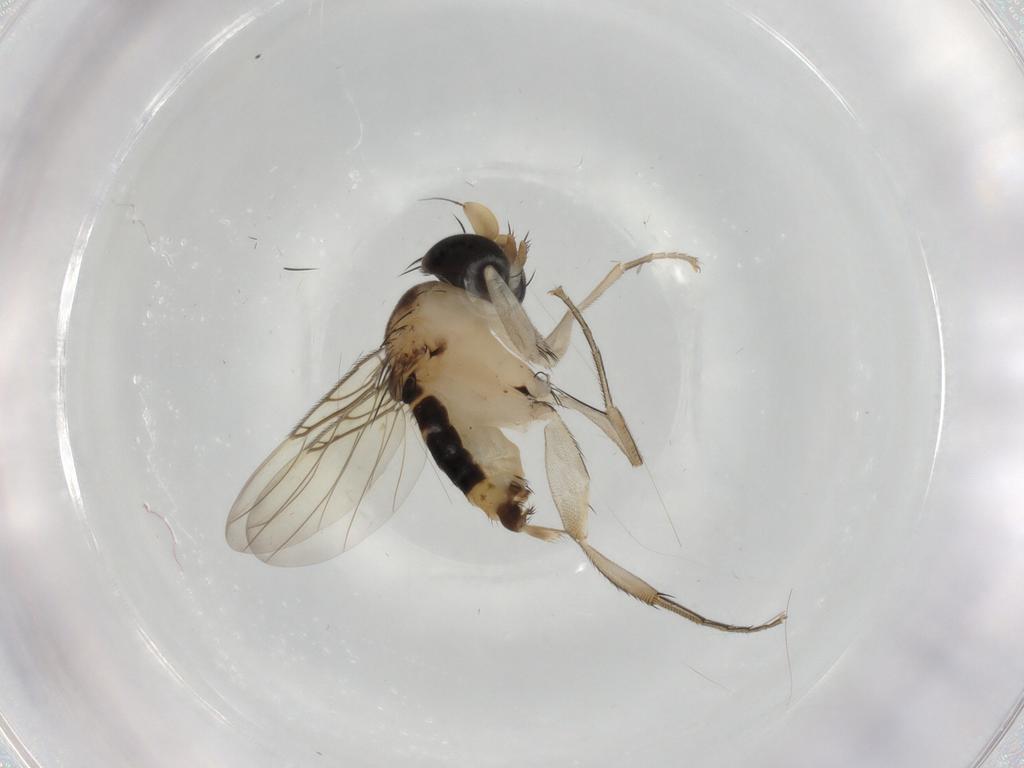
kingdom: Animalia
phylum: Arthropoda
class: Insecta
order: Diptera
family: Phoridae
